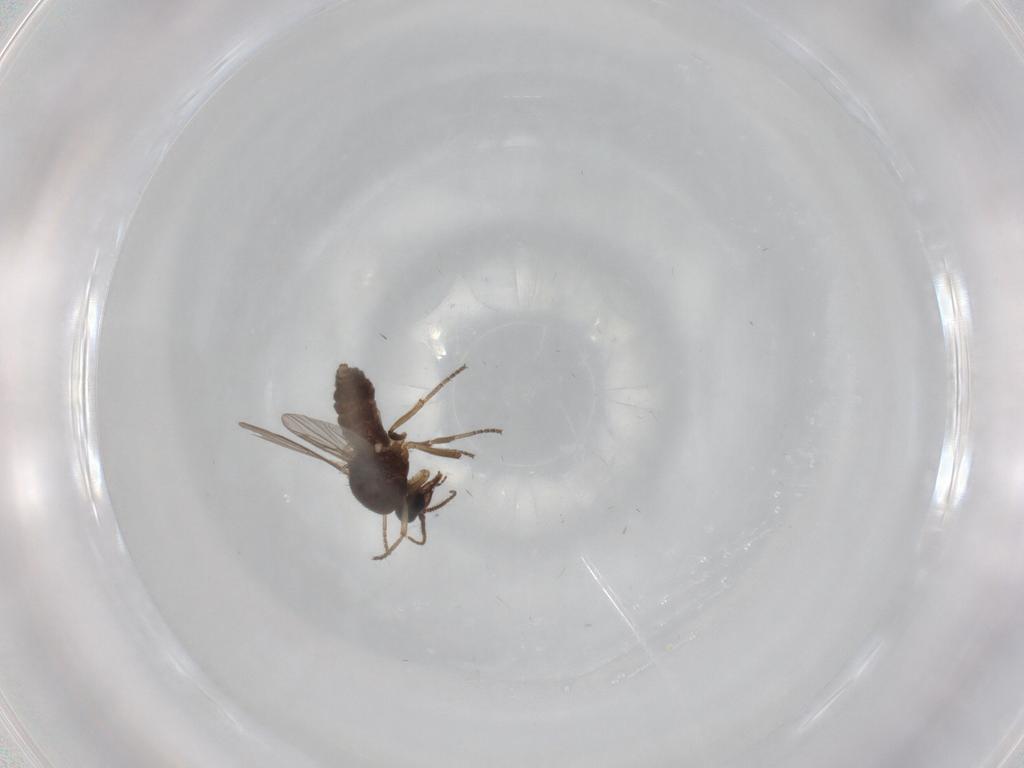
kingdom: Animalia
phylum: Arthropoda
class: Insecta
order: Diptera
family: Ceratopogonidae
